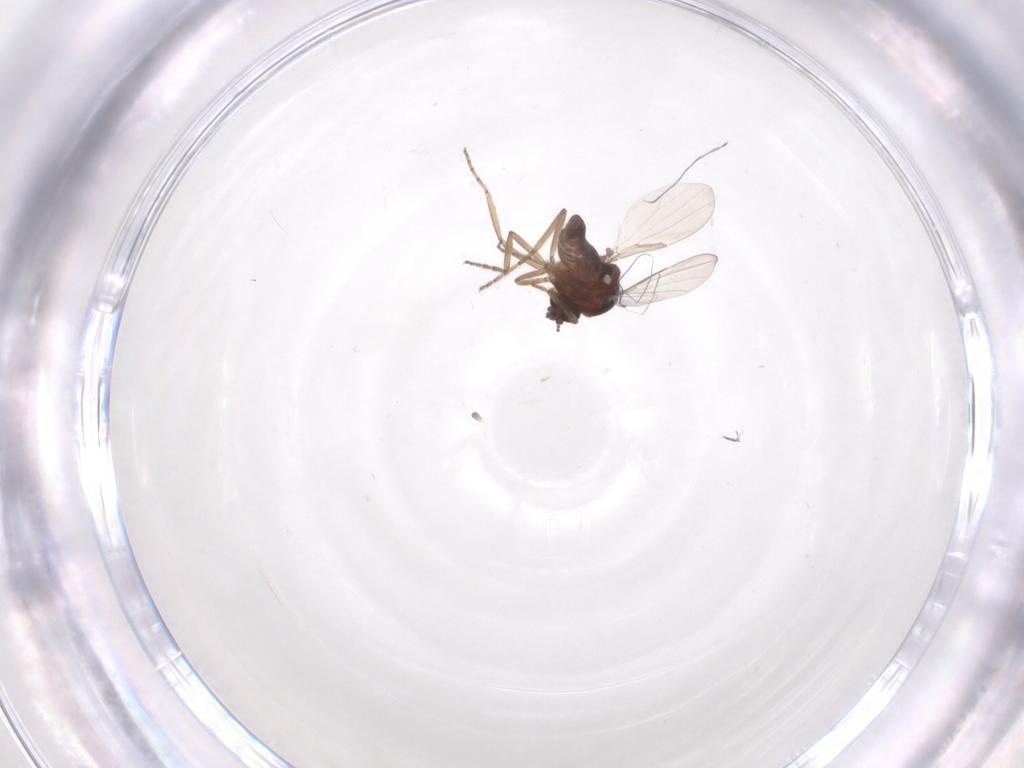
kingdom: Animalia
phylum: Arthropoda
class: Insecta
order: Diptera
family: Ceratopogonidae
